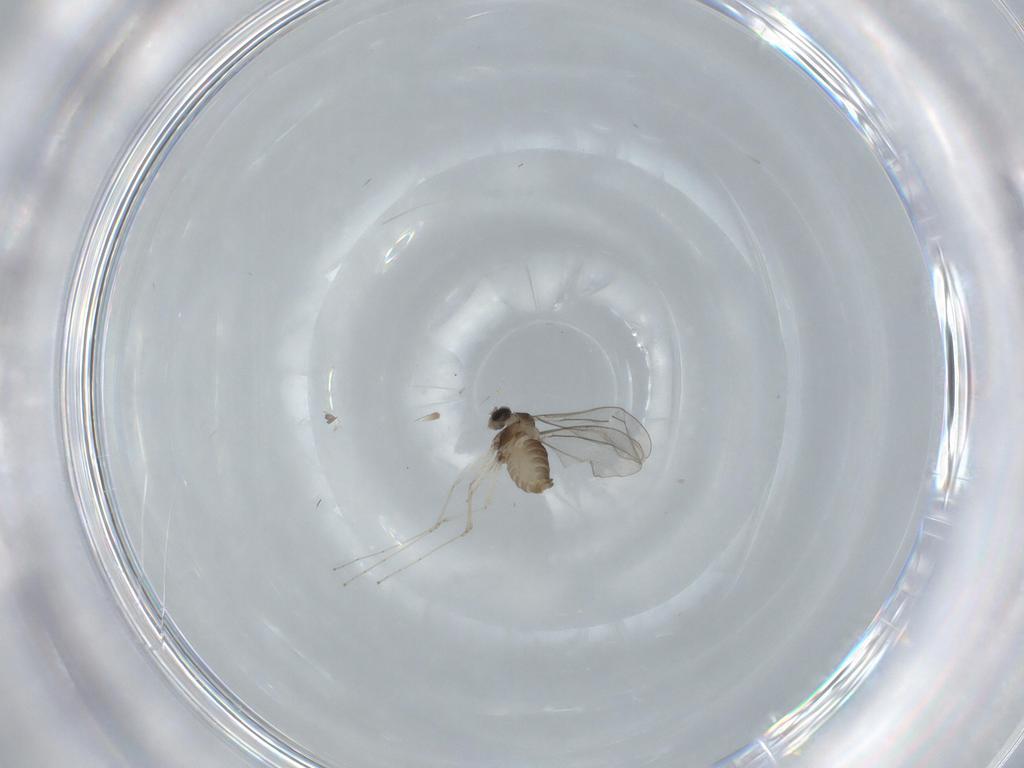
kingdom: Animalia
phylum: Arthropoda
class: Insecta
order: Diptera
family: Cecidomyiidae
